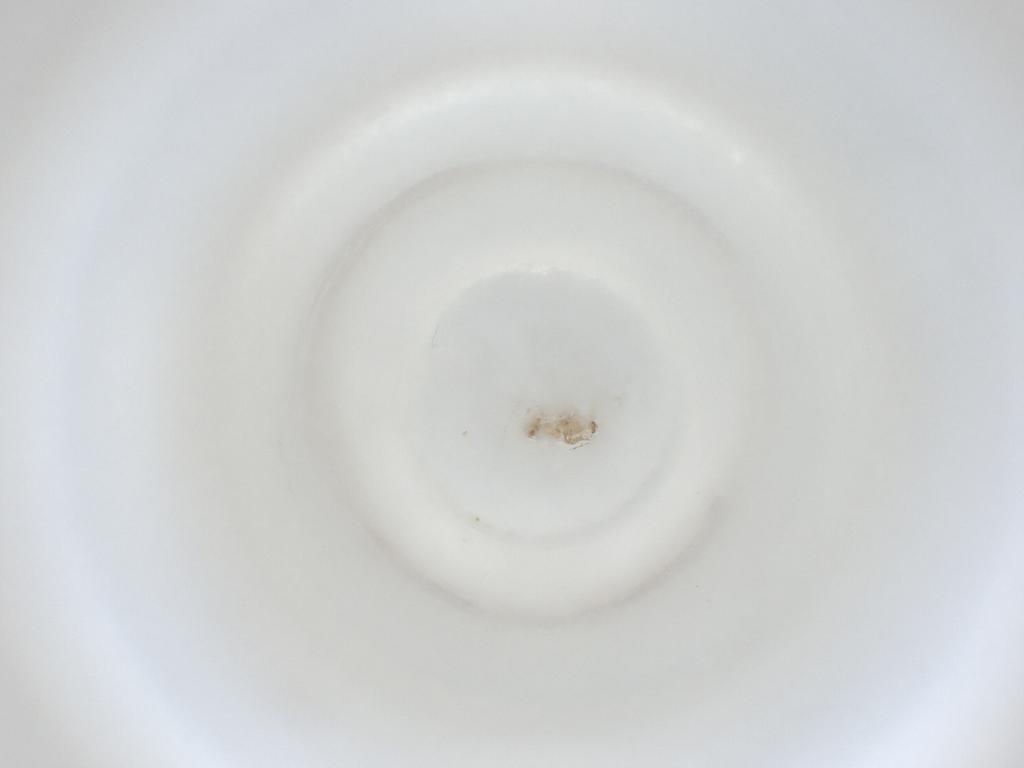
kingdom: Animalia
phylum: Arthropoda
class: Insecta
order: Diptera
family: Cecidomyiidae
